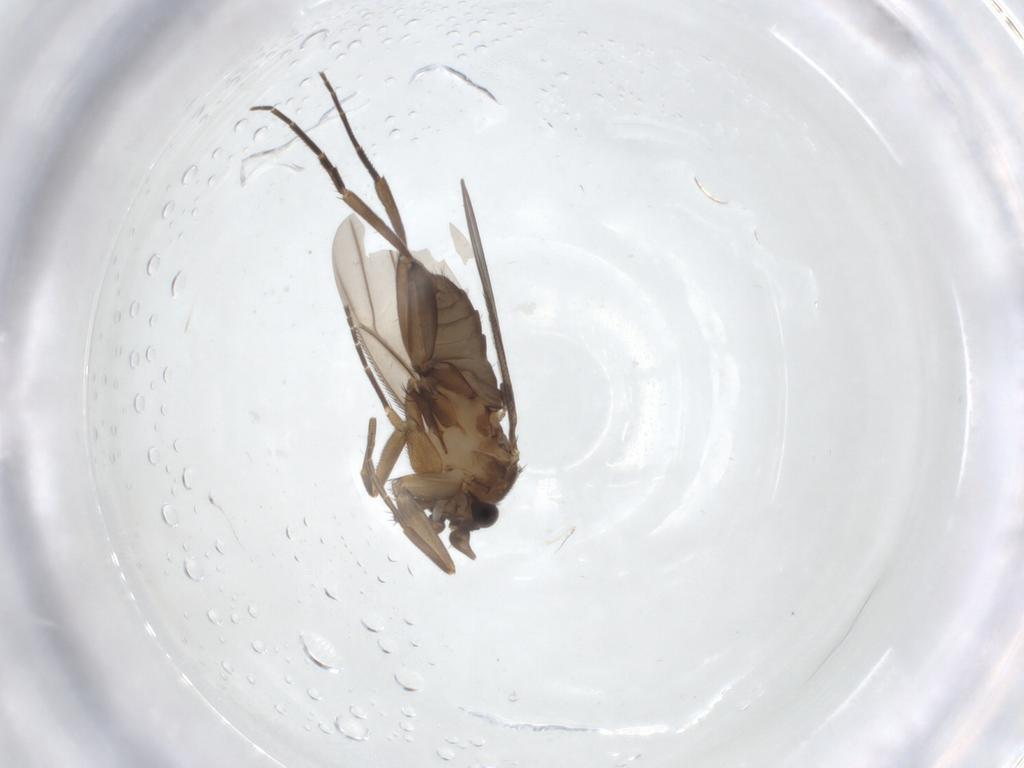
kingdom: Animalia
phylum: Arthropoda
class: Insecta
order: Diptera
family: Phoridae
